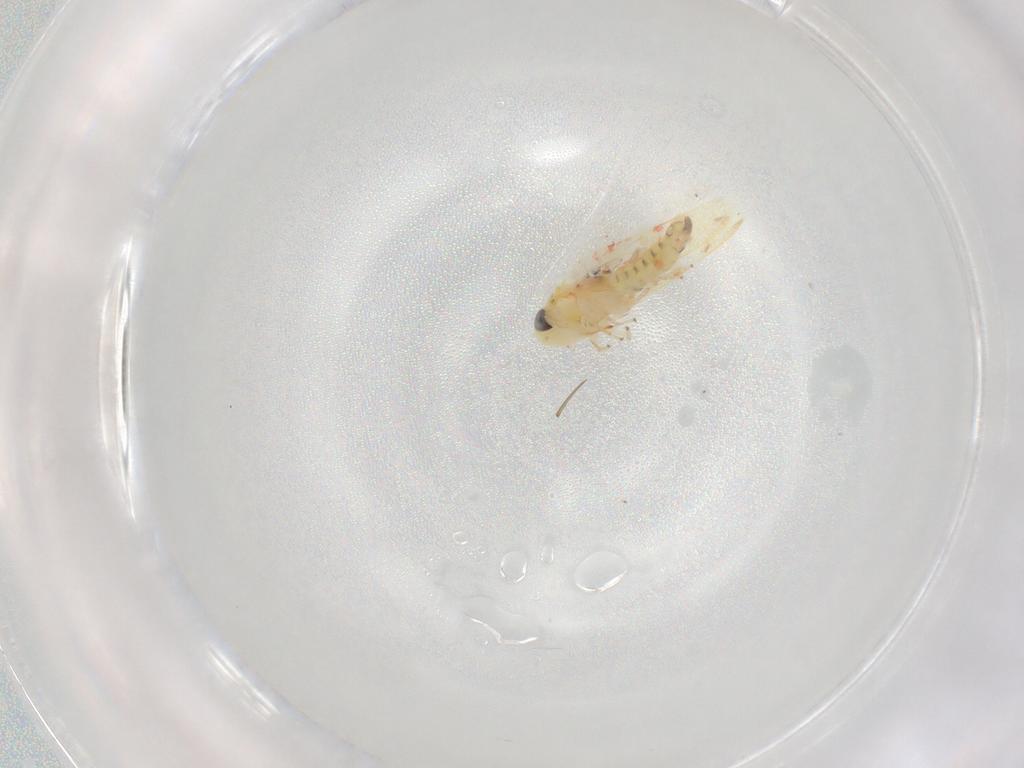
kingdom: Animalia
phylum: Arthropoda
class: Insecta
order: Hemiptera
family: Cicadellidae
